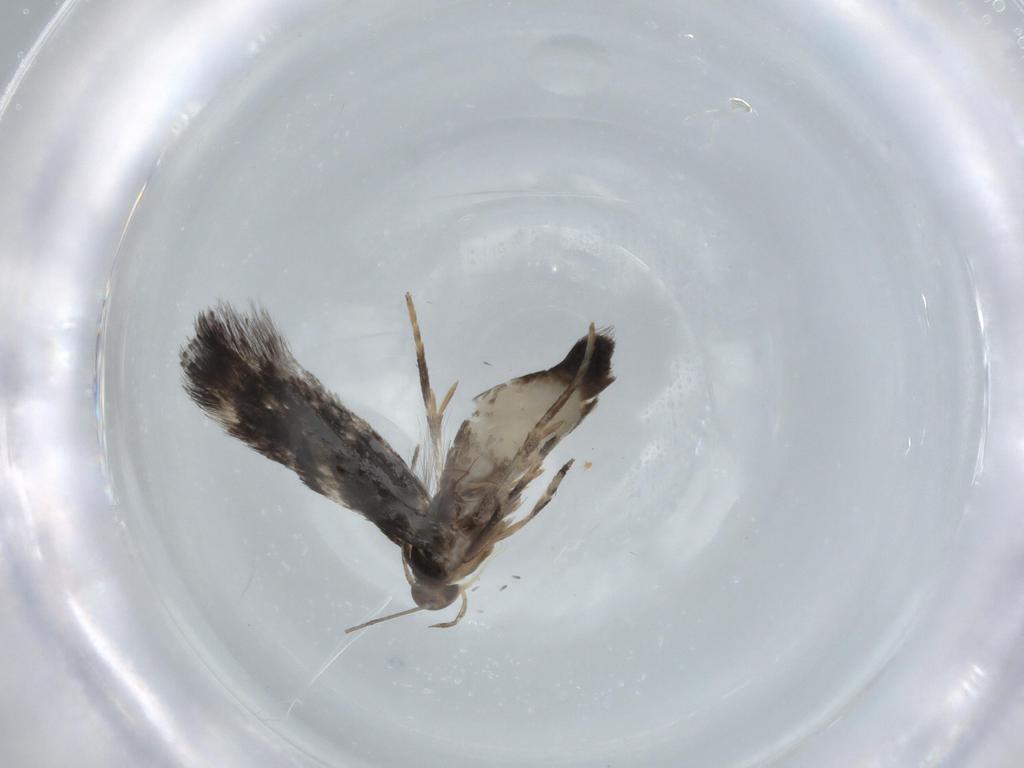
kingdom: Animalia
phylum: Arthropoda
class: Insecta
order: Lepidoptera
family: Cosmopterigidae
